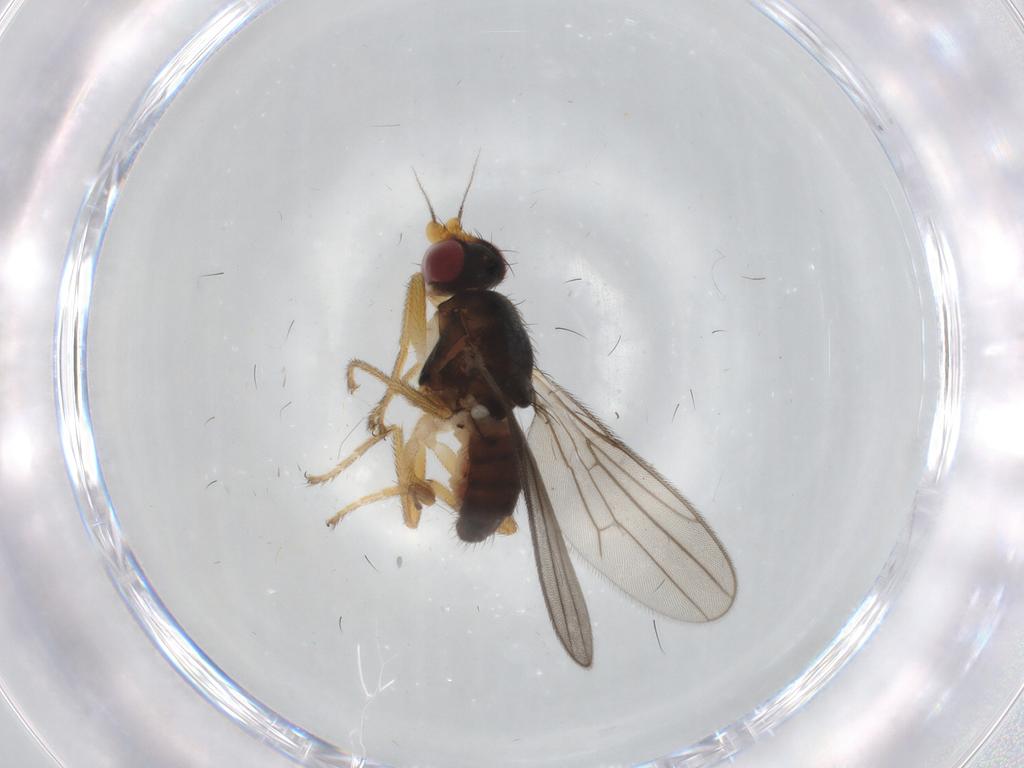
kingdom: Animalia
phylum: Arthropoda
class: Insecta
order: Diptera
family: Chloropidae
